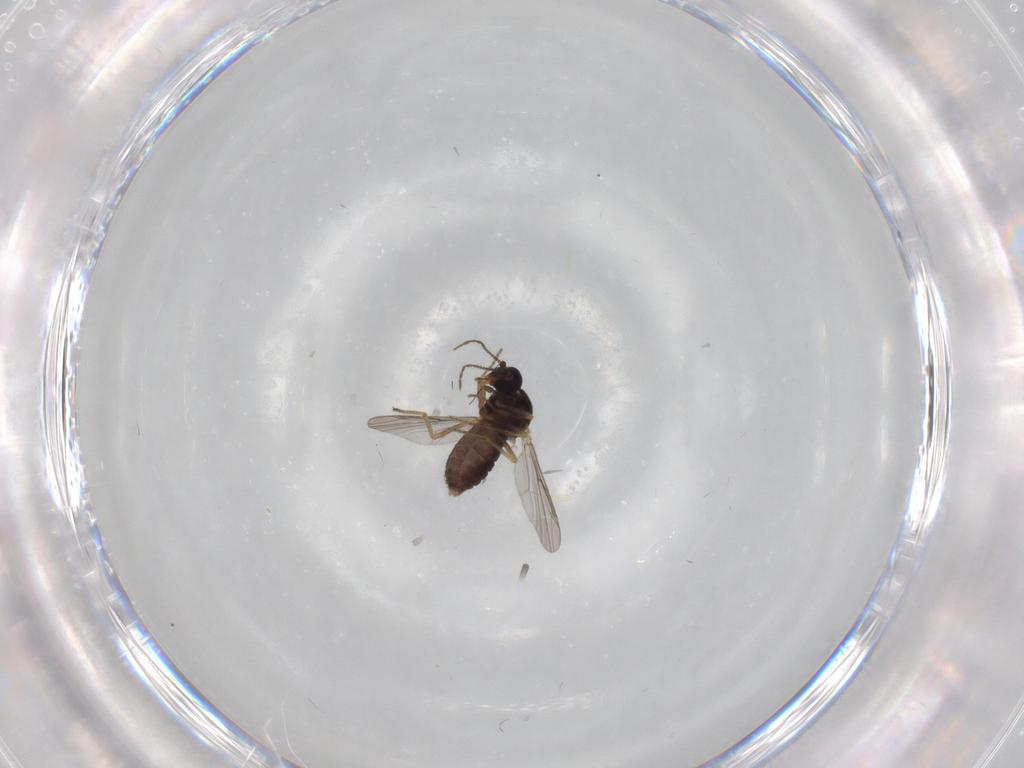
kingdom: Animalia
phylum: Arthropoda
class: Insecta
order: Diptera
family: Ceratopogonidae
